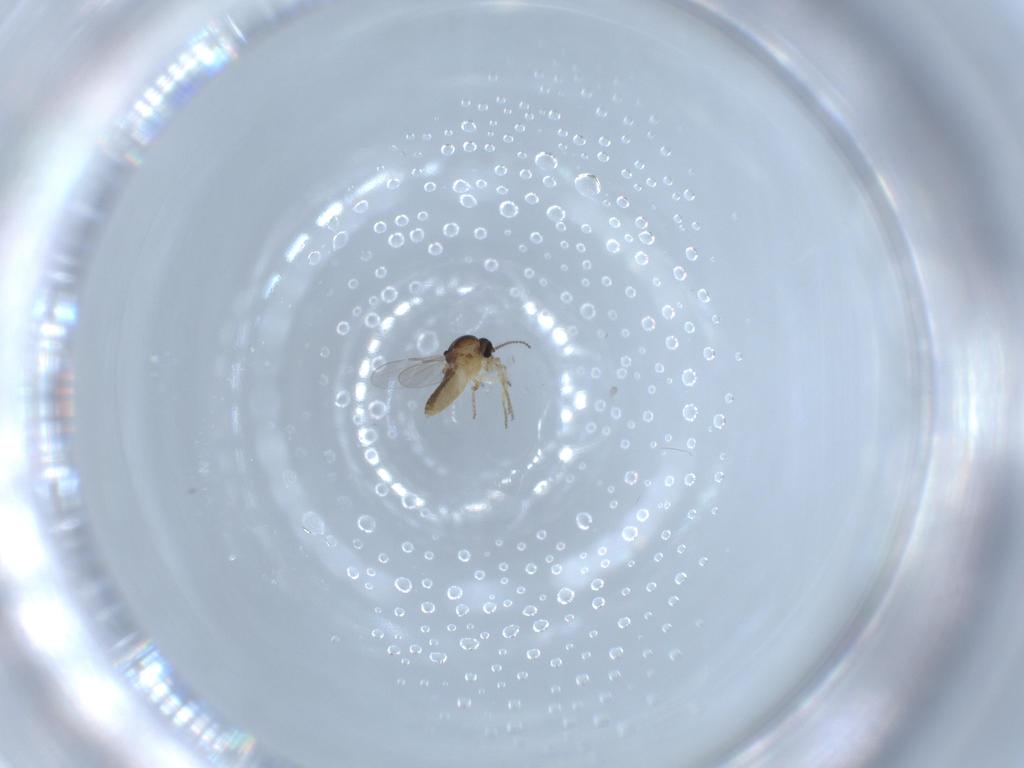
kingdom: Animalia
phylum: Arthropoda
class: Insecta
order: Diptera
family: Ceratopogonidae
